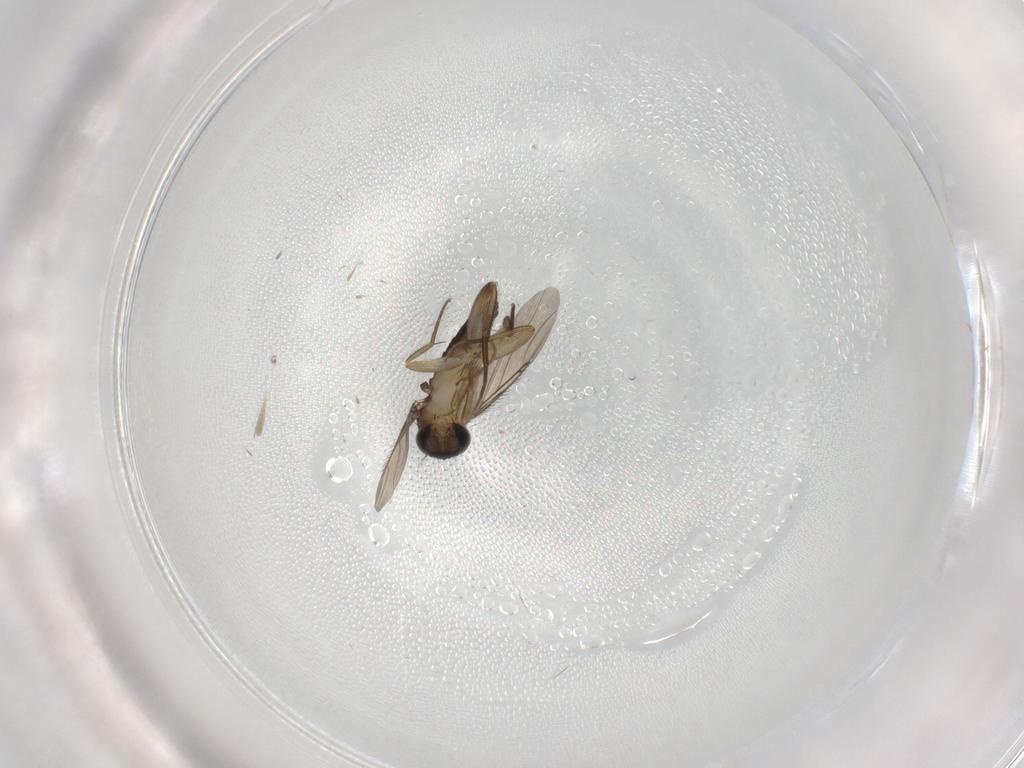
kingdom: Animalia
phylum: Arthropoda
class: Insecta
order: Diptera
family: Phoridae
